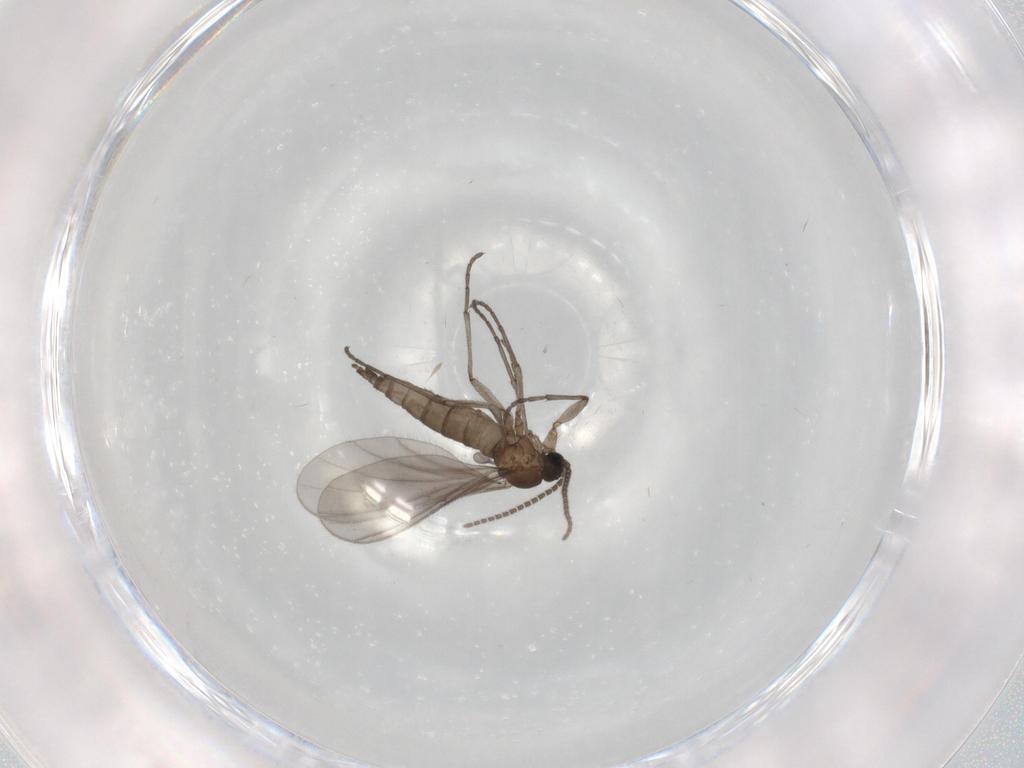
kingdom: Animalia
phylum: Arthropoda
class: Insecta
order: Diptera
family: Sciaridae
